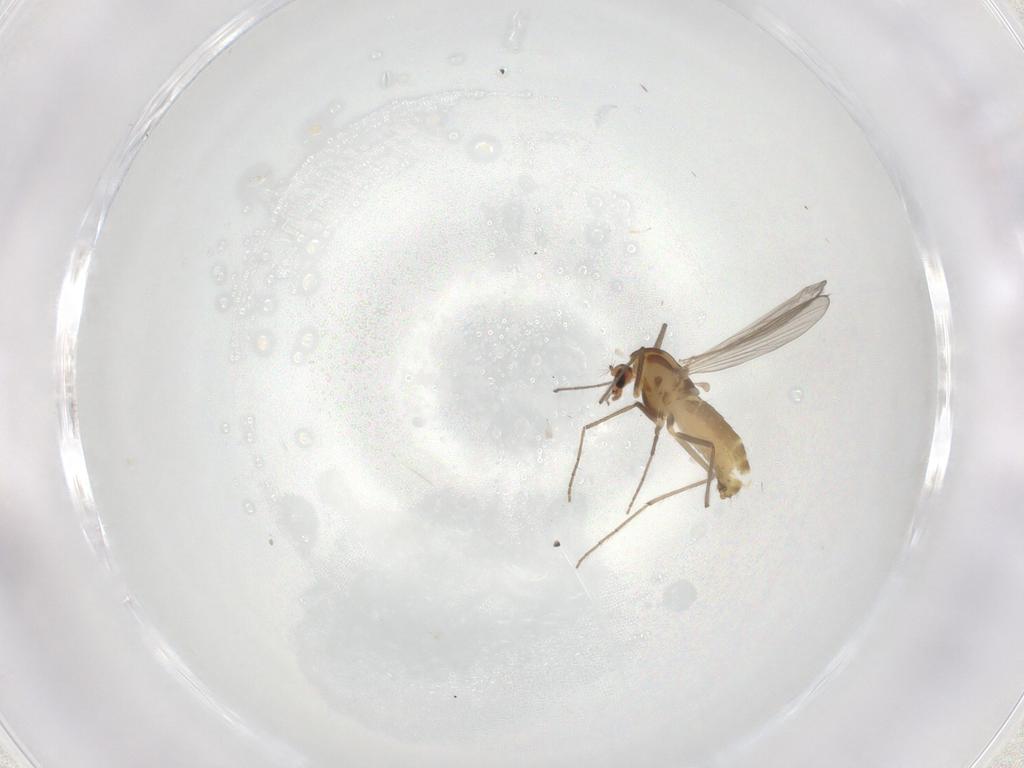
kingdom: Animalia
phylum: Arthropoda
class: Insecta
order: Diptera
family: Chironomidae
